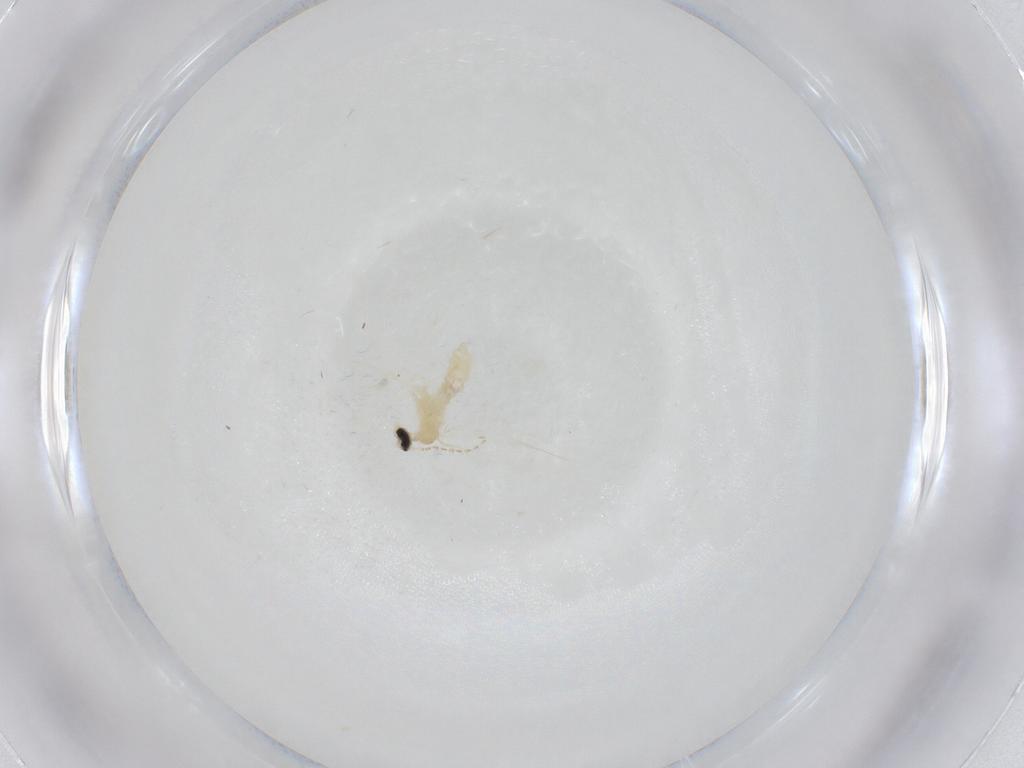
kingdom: Animalia
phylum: Arthropoda
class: Insecta
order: Diptera
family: Cecidomyiidae
